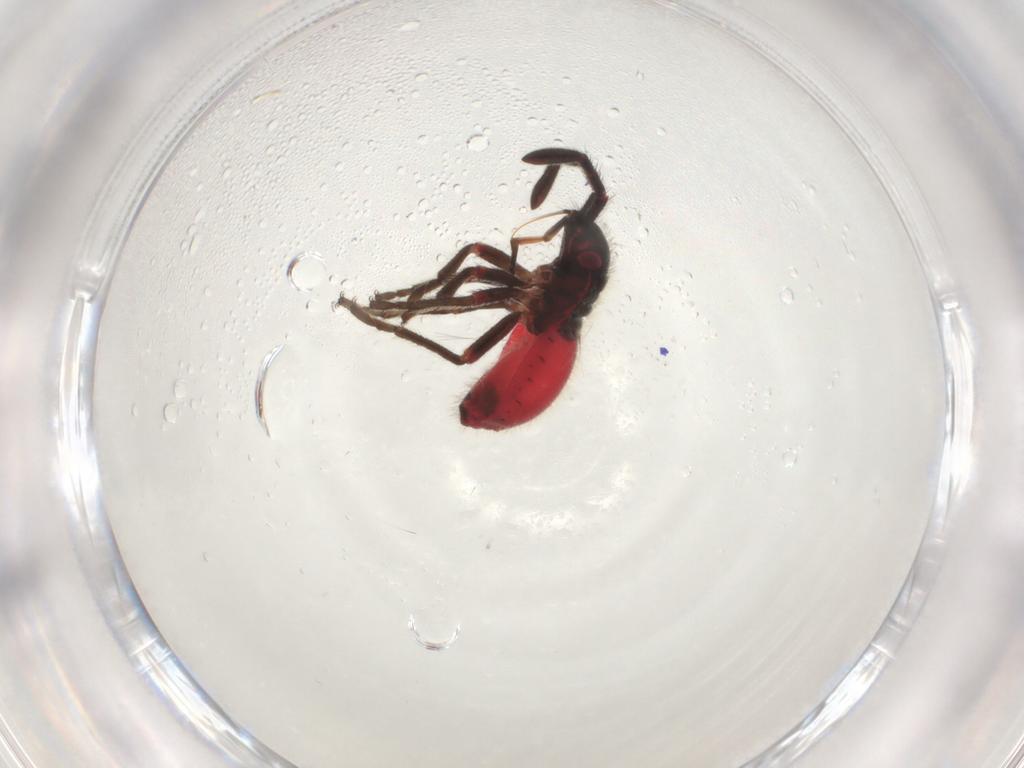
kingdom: Animalia
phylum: Arthropoda
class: Insecta
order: Hemiptera
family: Largidae
